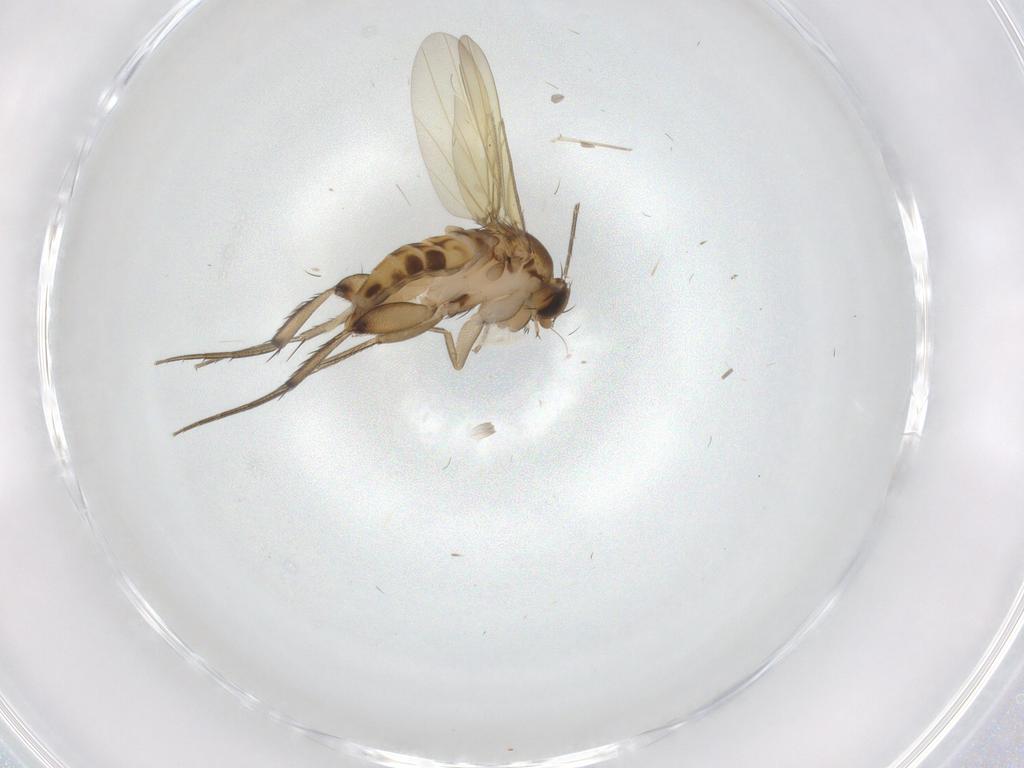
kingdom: Animalia
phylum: Arthropoda
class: Insecta
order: Diptera
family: Phoridae
